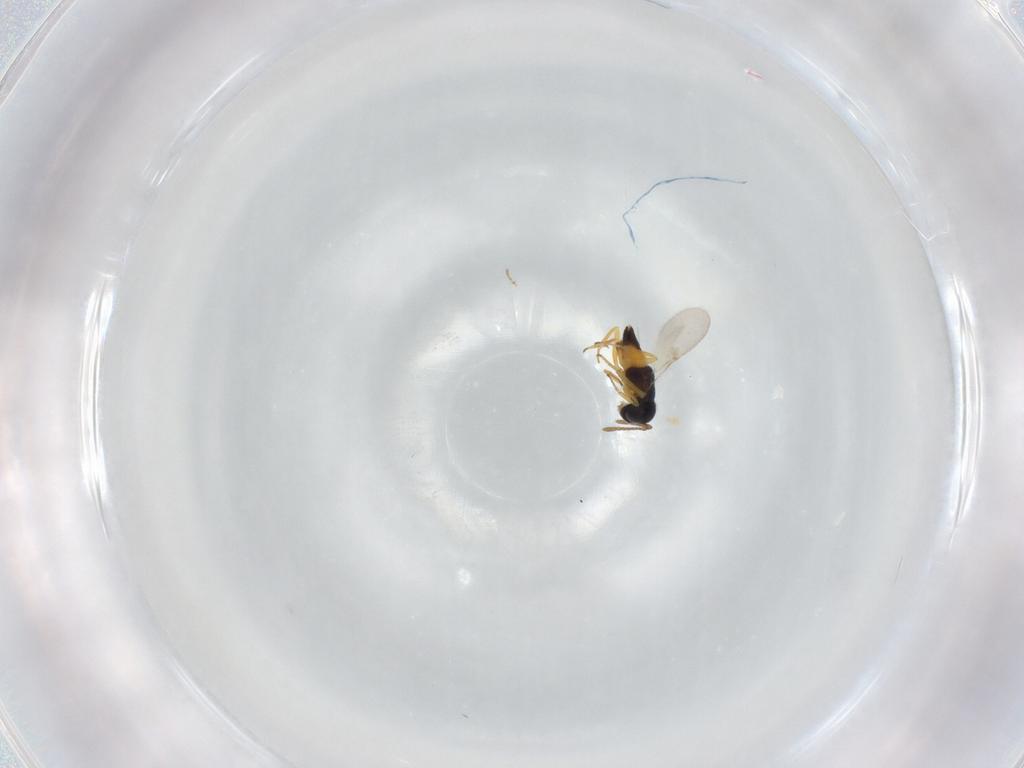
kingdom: Animalia
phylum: Arthropoda
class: Insecta
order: Hymenoptera
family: Encyrtidae
